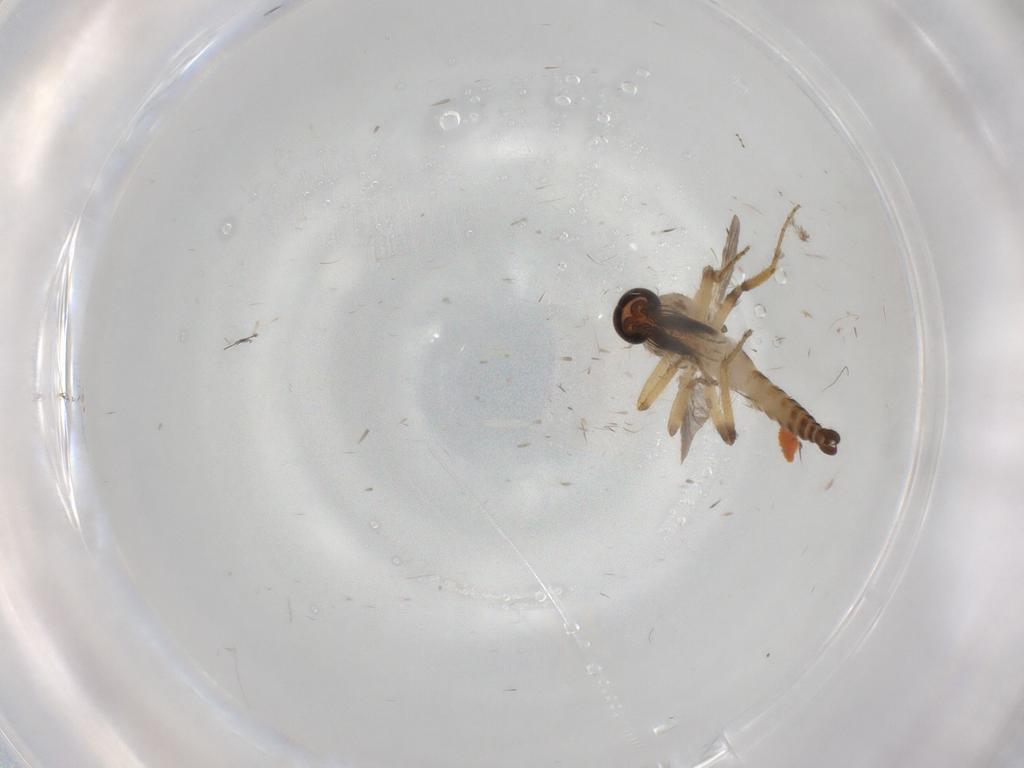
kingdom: Animalia
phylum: Arthropoda
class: Insecta
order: Diptera
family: Ceratopogonidae
